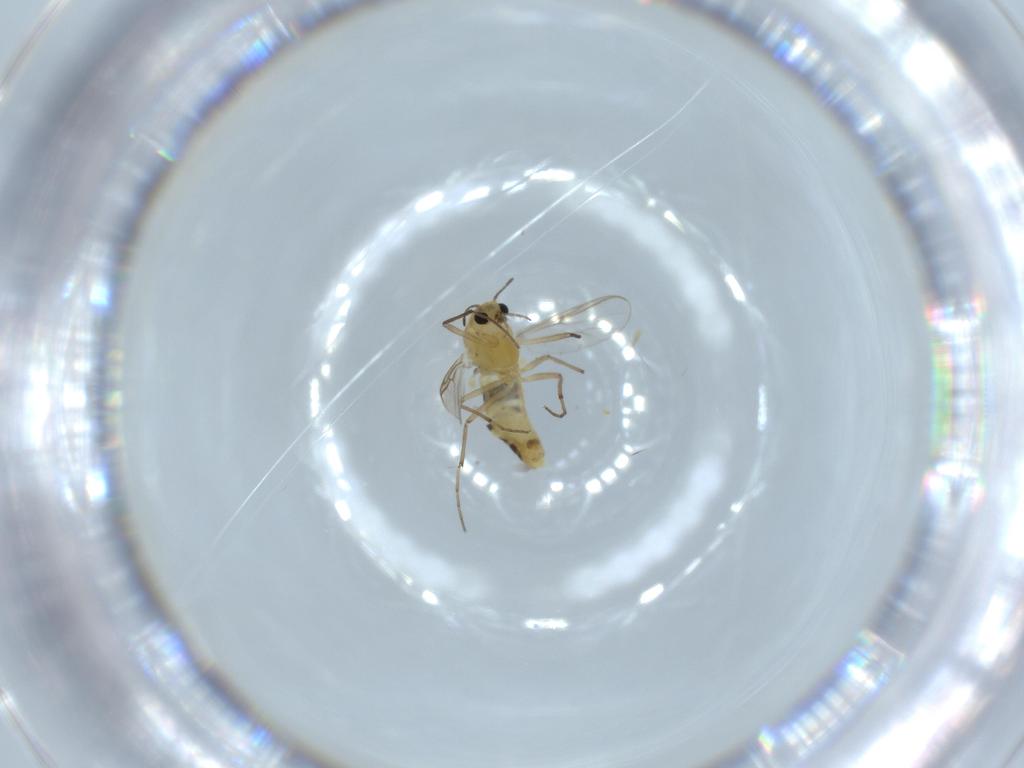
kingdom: Animalia
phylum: Arthropoda
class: Insecta
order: Diptera
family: Chironomidae
